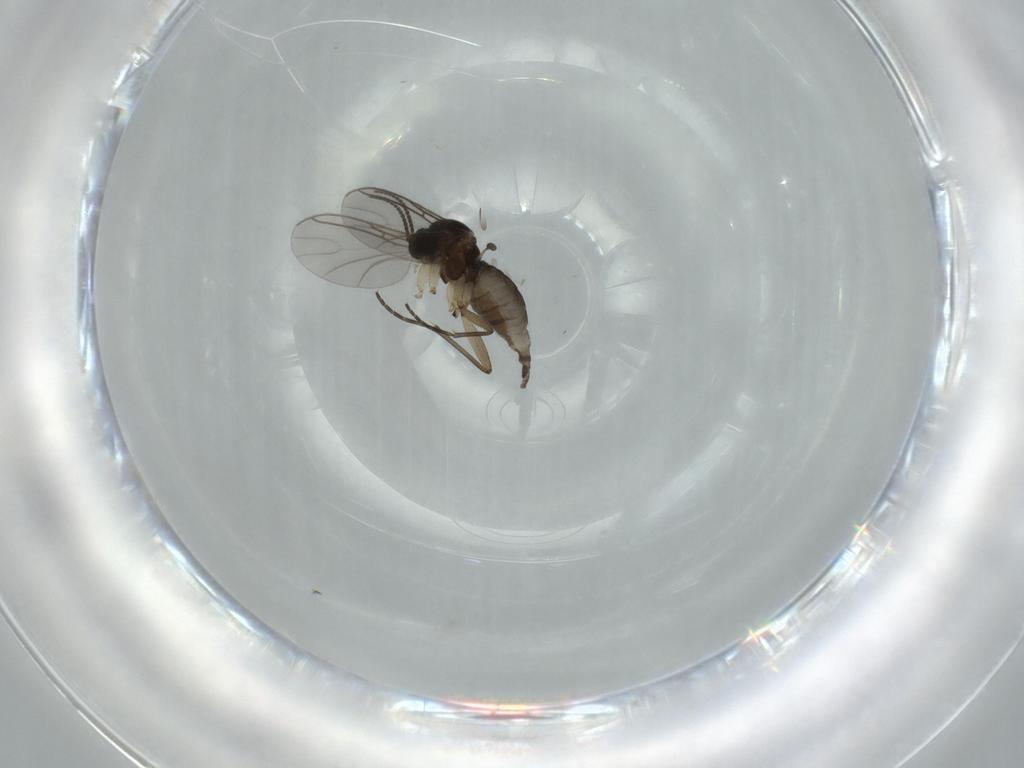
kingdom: Animalia
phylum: Arthropoda
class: Insecta
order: Diptera
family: Sciaridae
